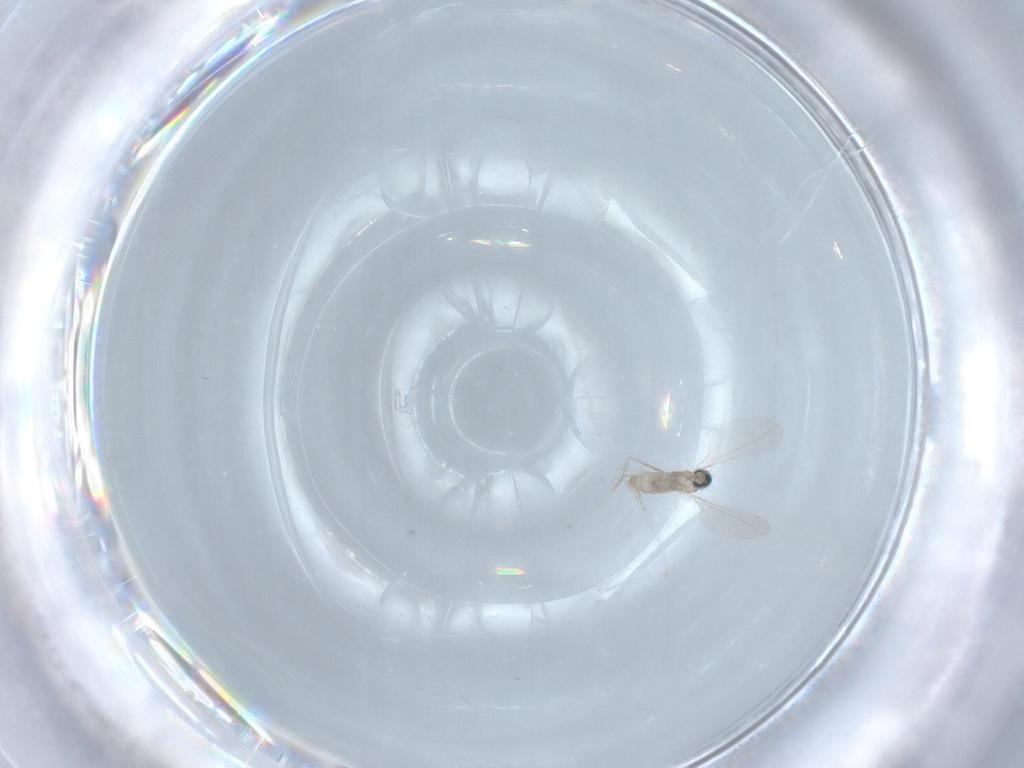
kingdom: Animalia
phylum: Arthropoda
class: Insecta
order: Diptera
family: Cecidomyiidae
